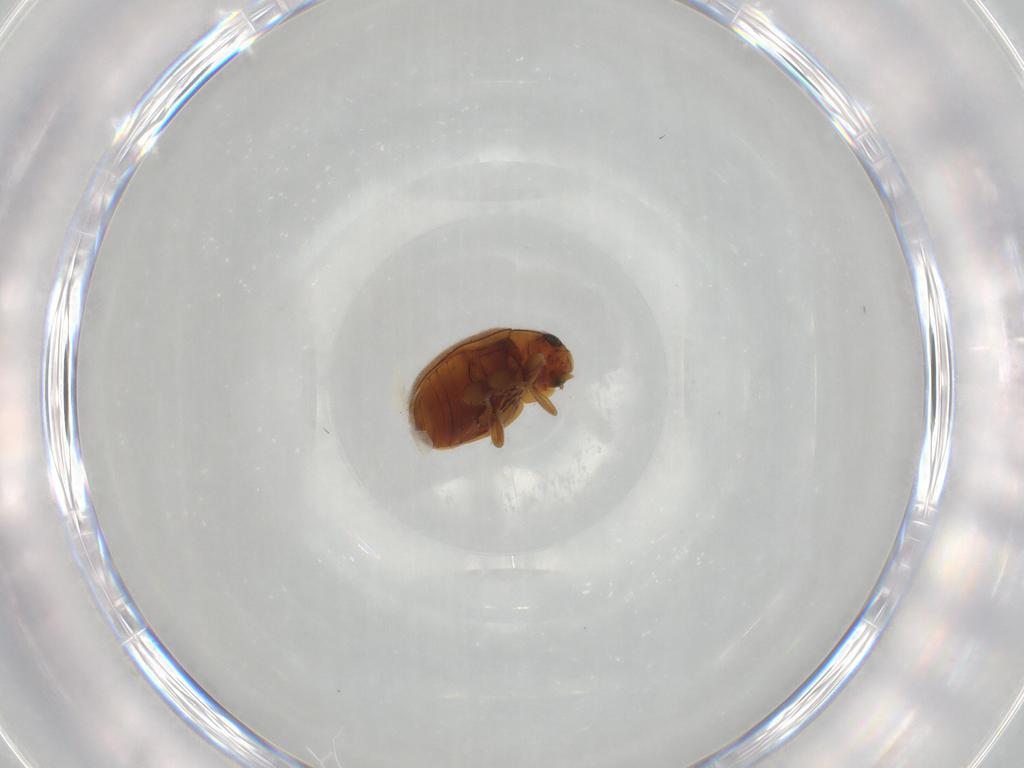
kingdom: Animalia
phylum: Arthropoda
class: Insecta
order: Coleoptera
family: Coccinellidae
